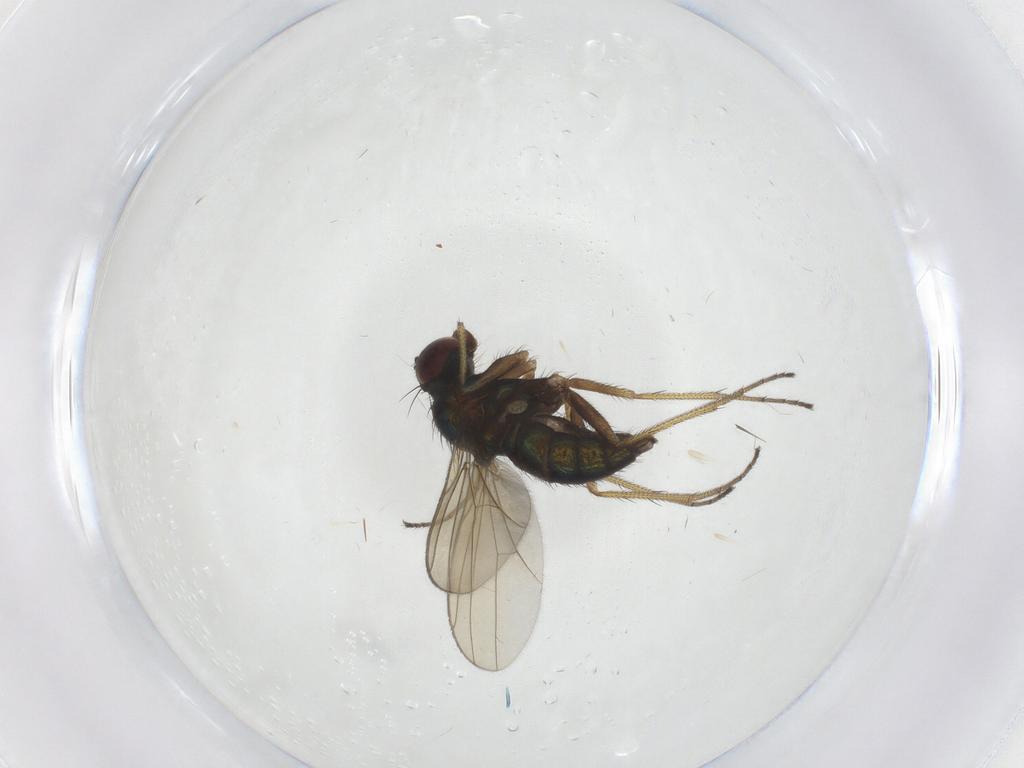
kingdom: Animalia
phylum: Arthropoda
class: Insecta
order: Diptera
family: Dolichopodidae
